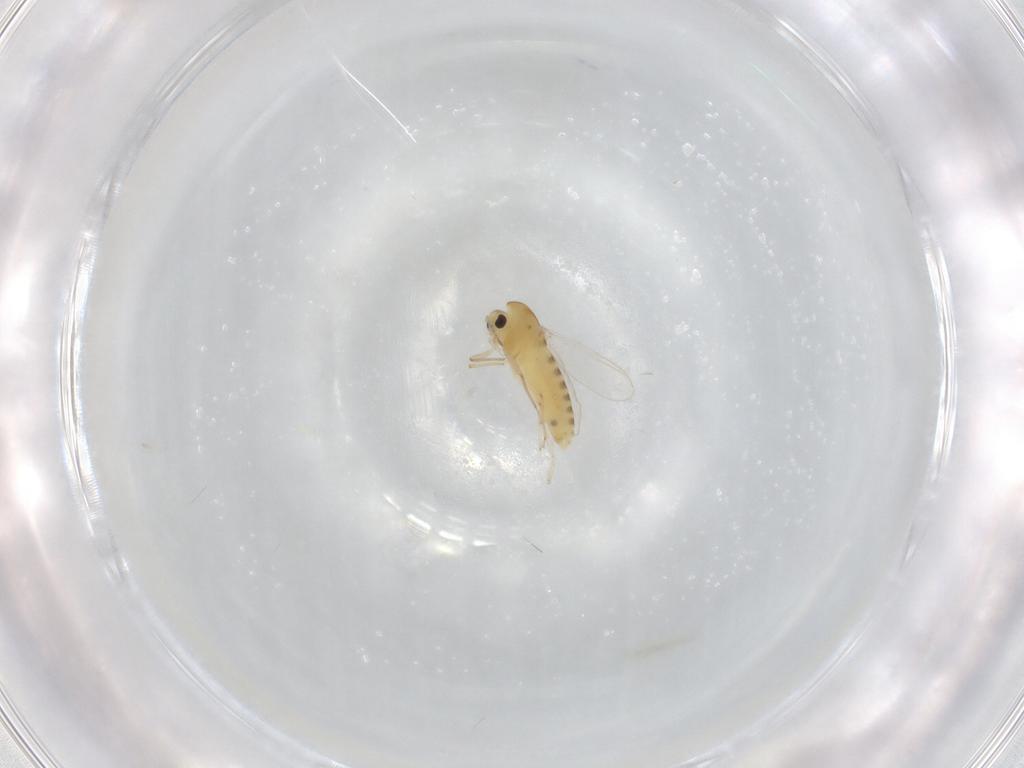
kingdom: Animalia
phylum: Arthropoda
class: Insecta
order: Diptera
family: Chironomidae
